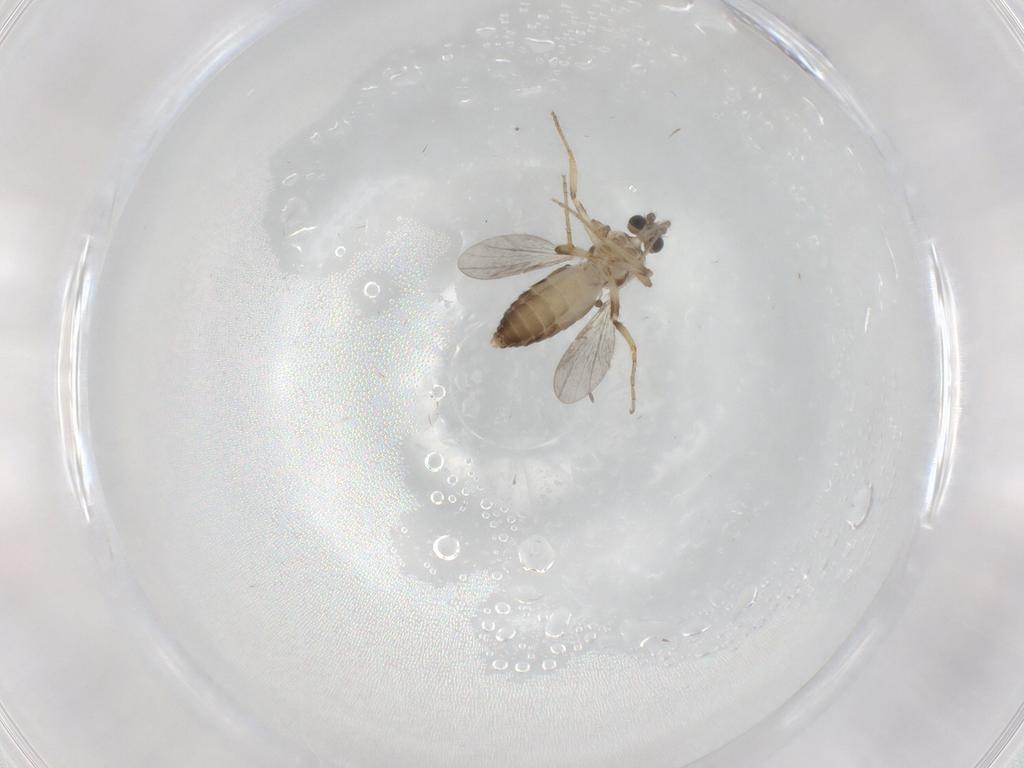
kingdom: Animalia
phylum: Arthropoda
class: Insecta
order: Diptera
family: Ceratopogonidae
